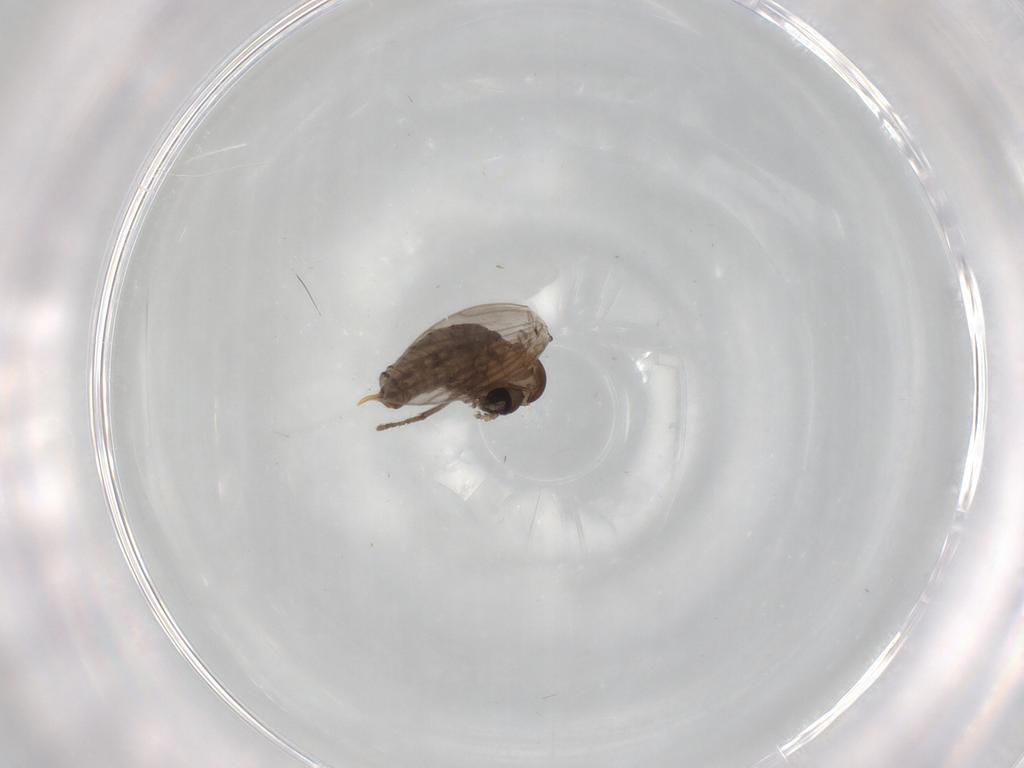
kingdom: Animalia
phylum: Arthropoda
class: Insecta
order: Diptera
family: Psychodidae
